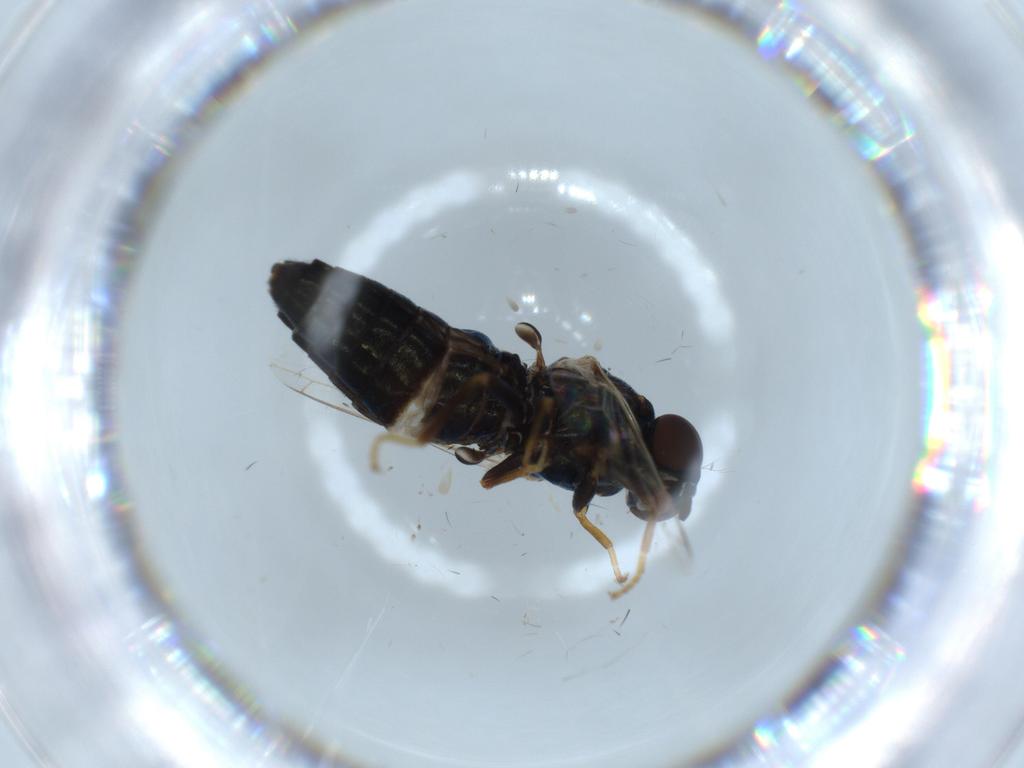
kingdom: Animalia
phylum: Arthropoda
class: Insecta
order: Diptera
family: Scenopinidae
